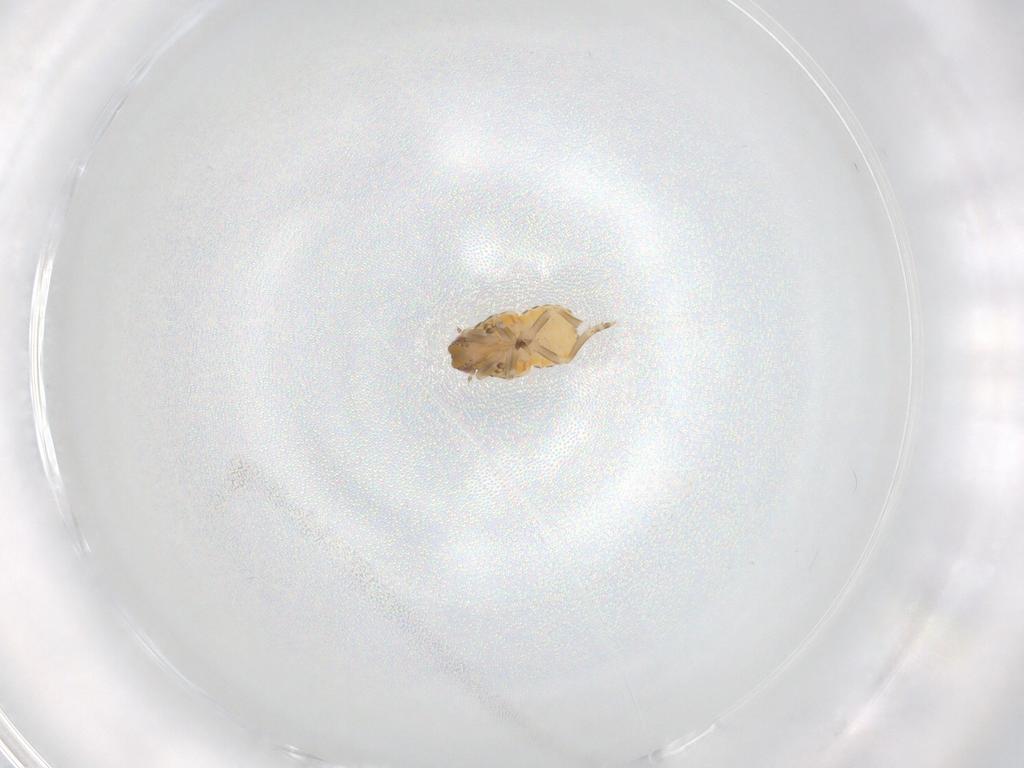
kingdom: Animalia
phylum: Arthropoda
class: Insecta
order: Hemiptera
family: Flatidae
